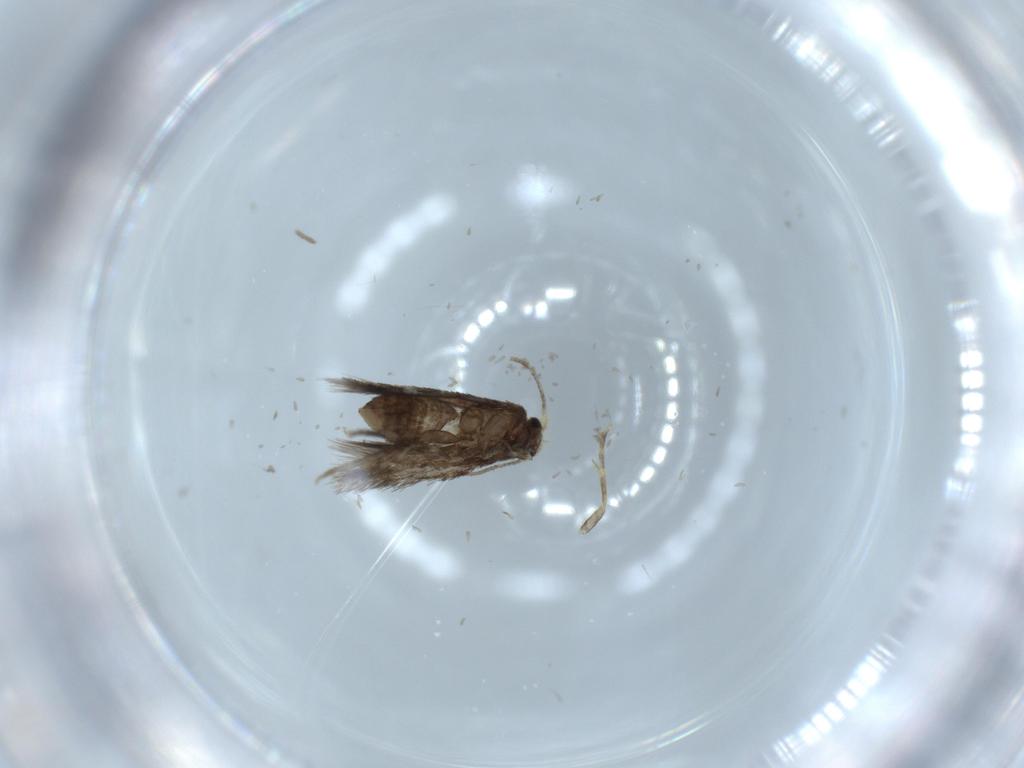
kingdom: Animalia
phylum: Arthropoda
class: Insecta
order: Lepidoptera
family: Nepticulidae
